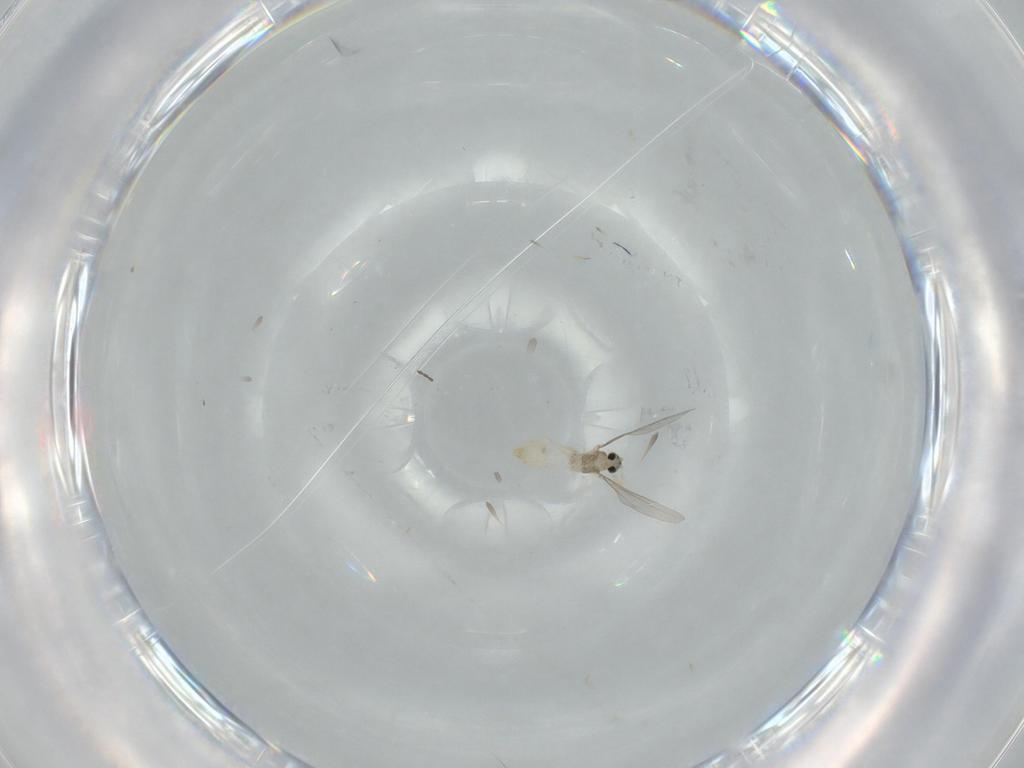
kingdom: Animalia
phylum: Arthropoda
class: Insecta
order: Diptera
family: Cecidomyiidae
